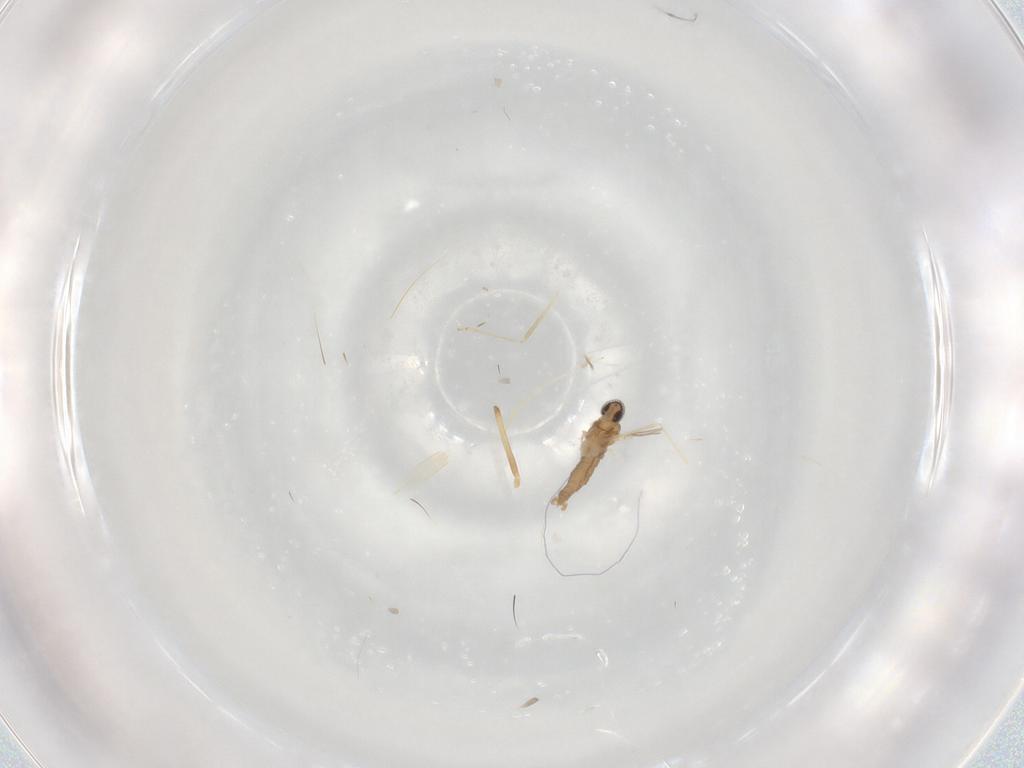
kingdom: Animalia
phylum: Arthropoda
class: Insecta
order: Diptera
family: Chironomidae
